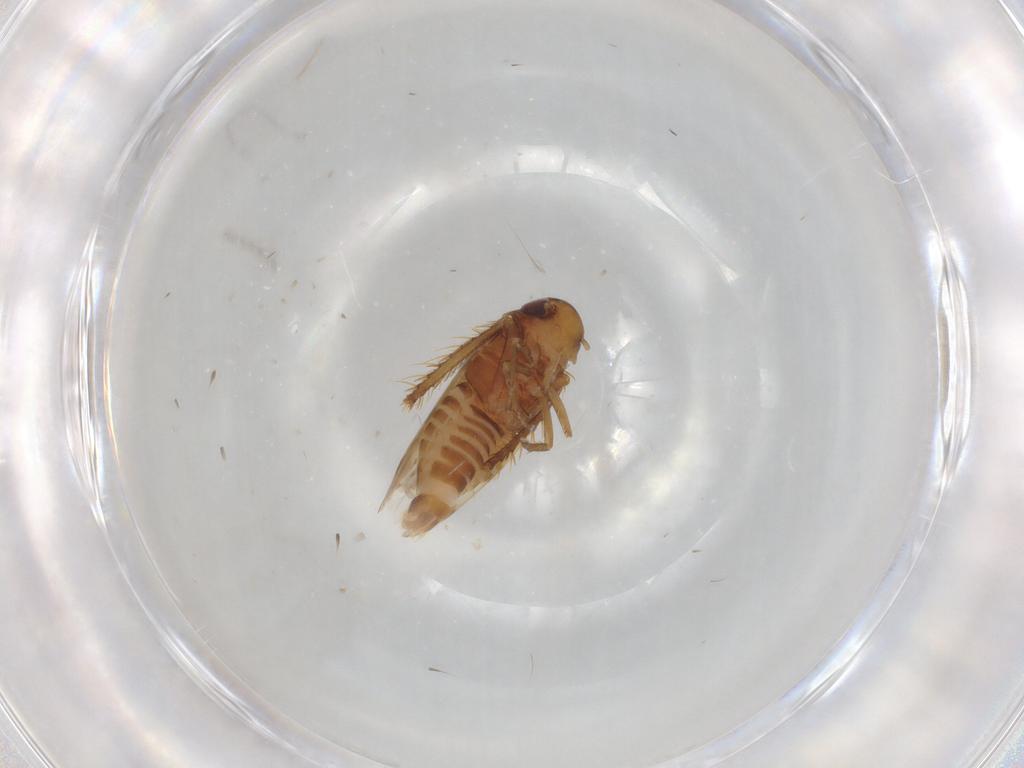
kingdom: Animalia
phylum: Arthropoda
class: Insecta
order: Hemiptera
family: Cicadellidae
